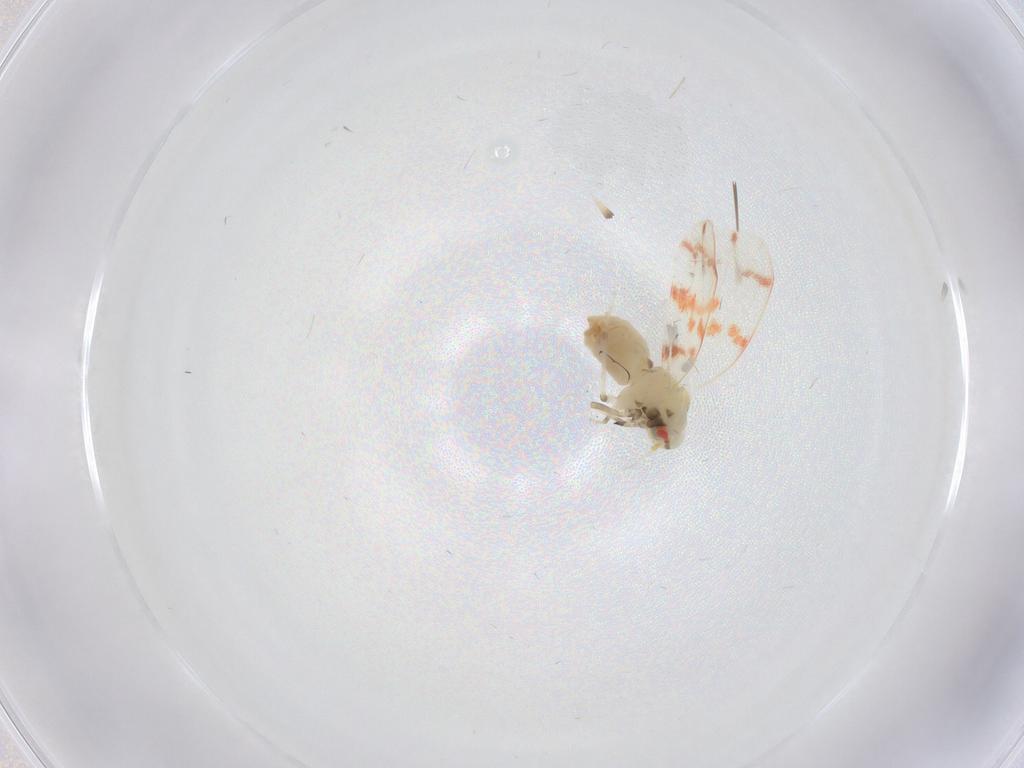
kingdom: Animalia
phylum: Arthropoda
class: Insecta
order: Diptera
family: Chironomidae
